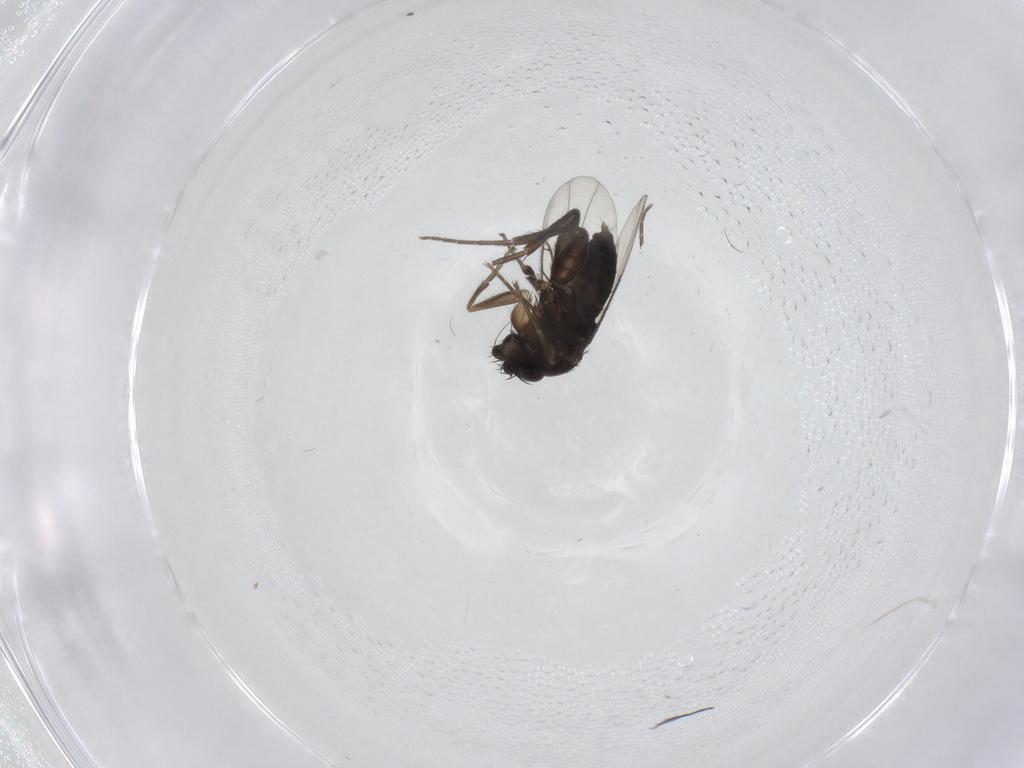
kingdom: Animalia
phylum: Arthropoda
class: Insecta
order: Diptera
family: Phoridae
